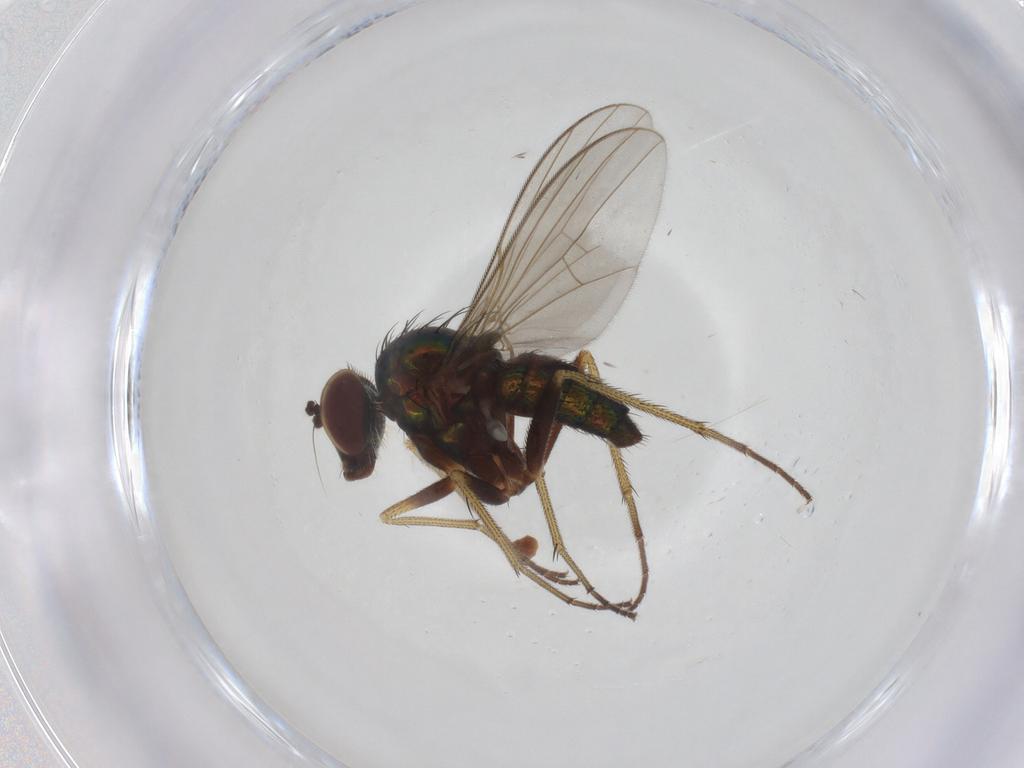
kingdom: Animalia
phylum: Arthropoda
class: Insecta
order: Diptera
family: Dolichopodidae
